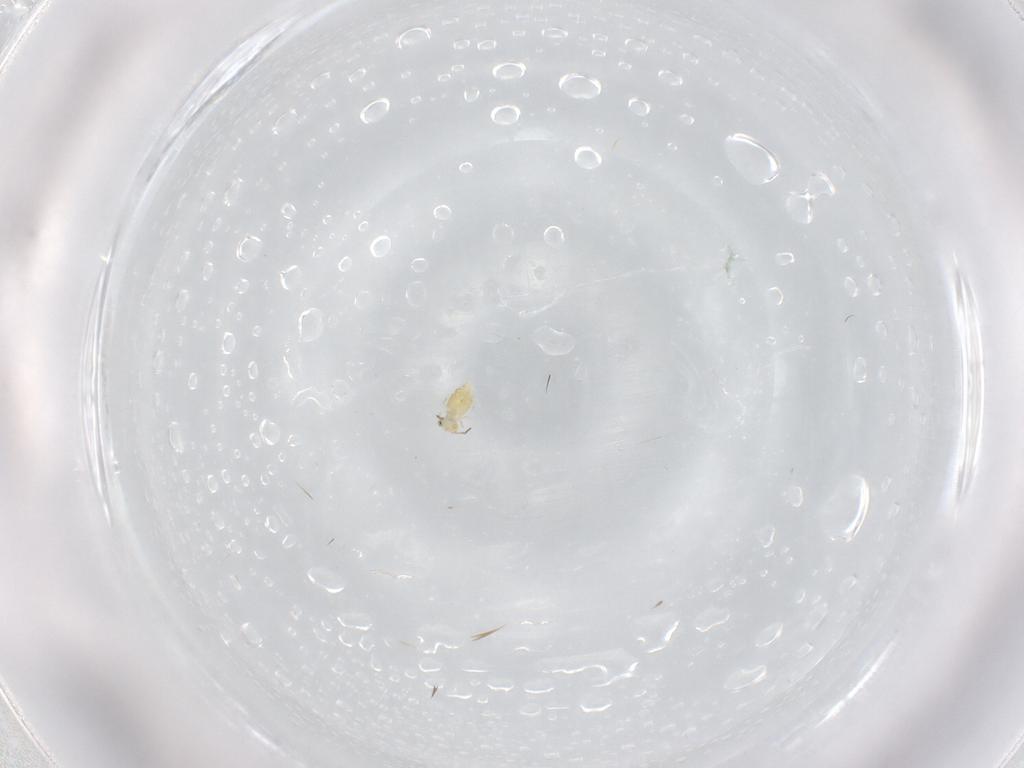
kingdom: Animalia
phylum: Arthropoda
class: Collembola
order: Symphypleona
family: Bourletiellidae
